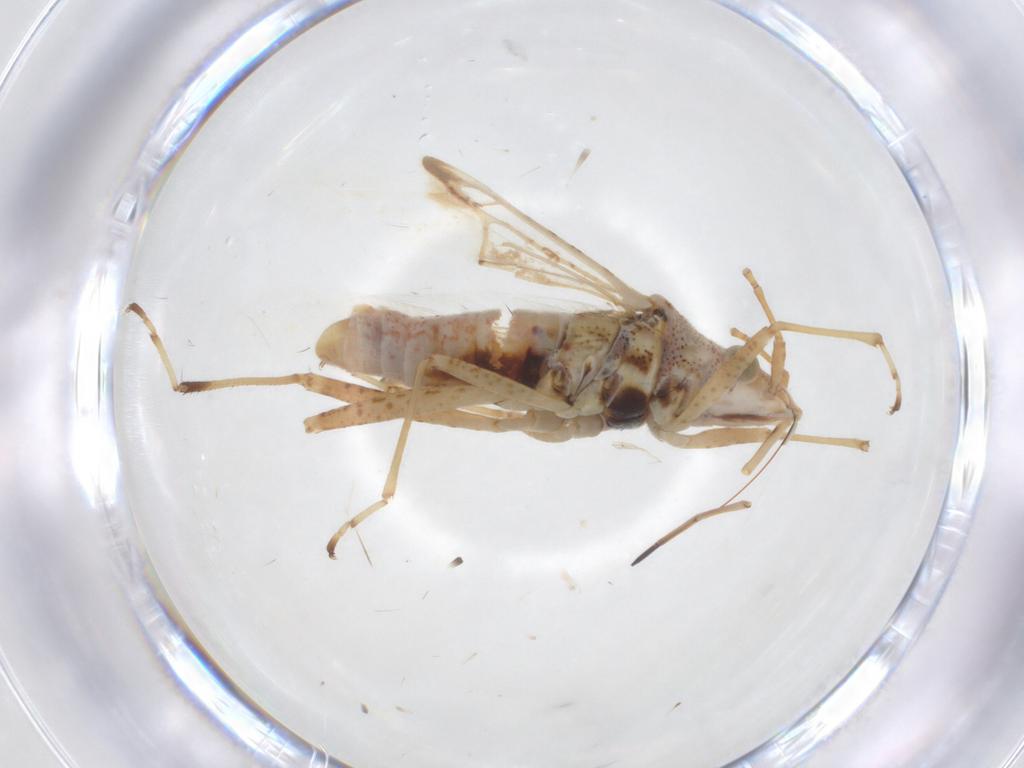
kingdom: Animalia
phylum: Arthropoda
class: Insecta
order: Hemiptera
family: Lygaeidae
